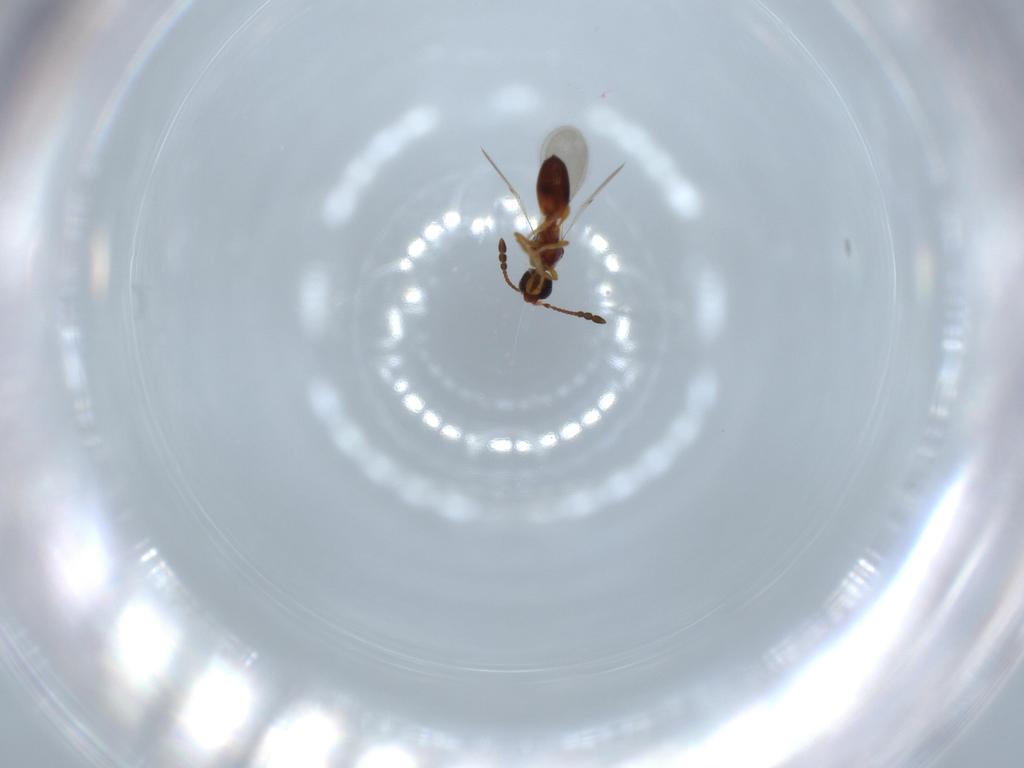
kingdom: Animalia
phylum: Arthropoda
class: Insecta
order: Hymenoptera
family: Diapriidae
